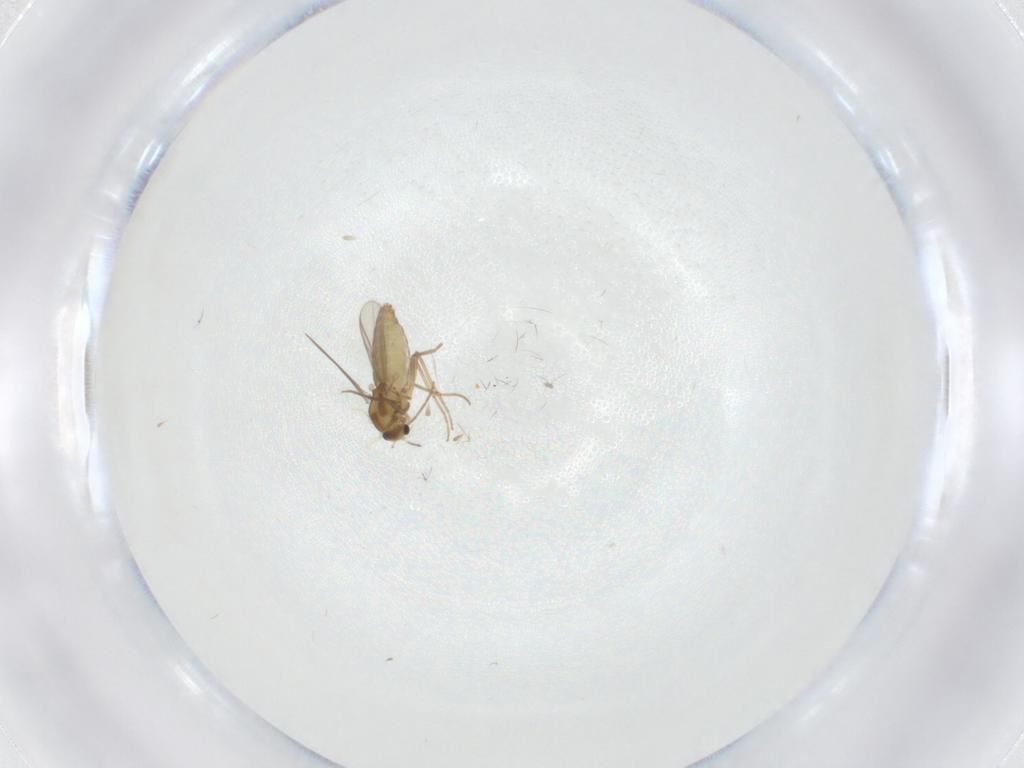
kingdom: Animalia
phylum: Arthropoda
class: Insecta
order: Diptera
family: Chironomidae
